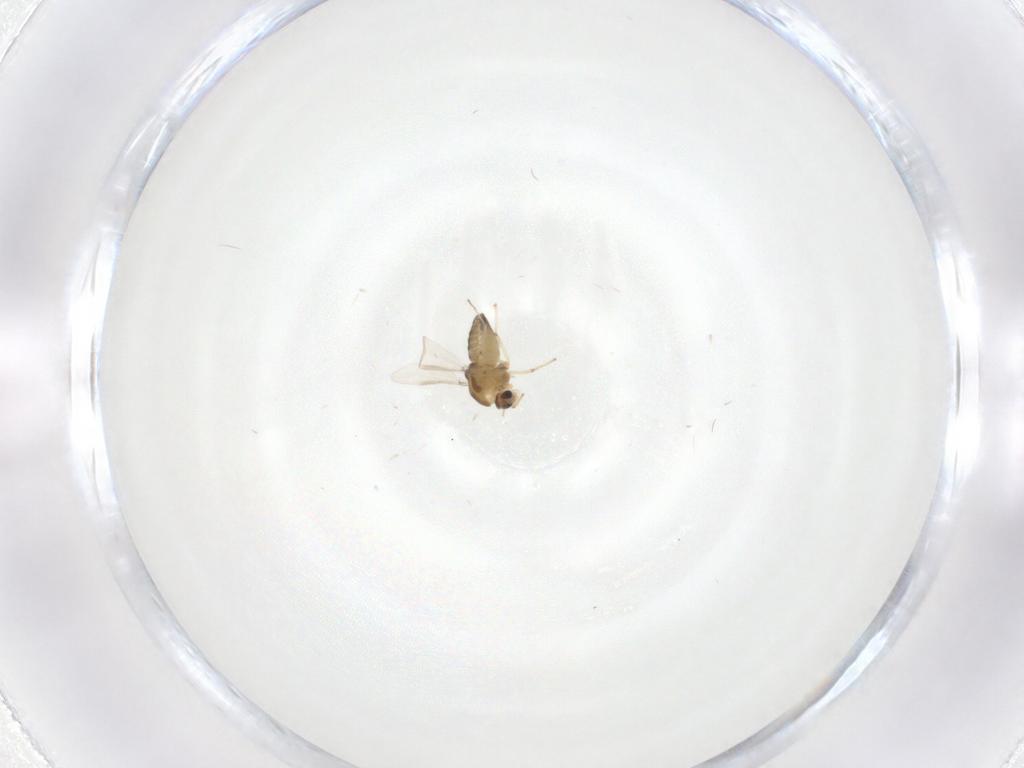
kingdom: Animalia
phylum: Arthropoda
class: Insecta
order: Diptera
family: Chironomidae
